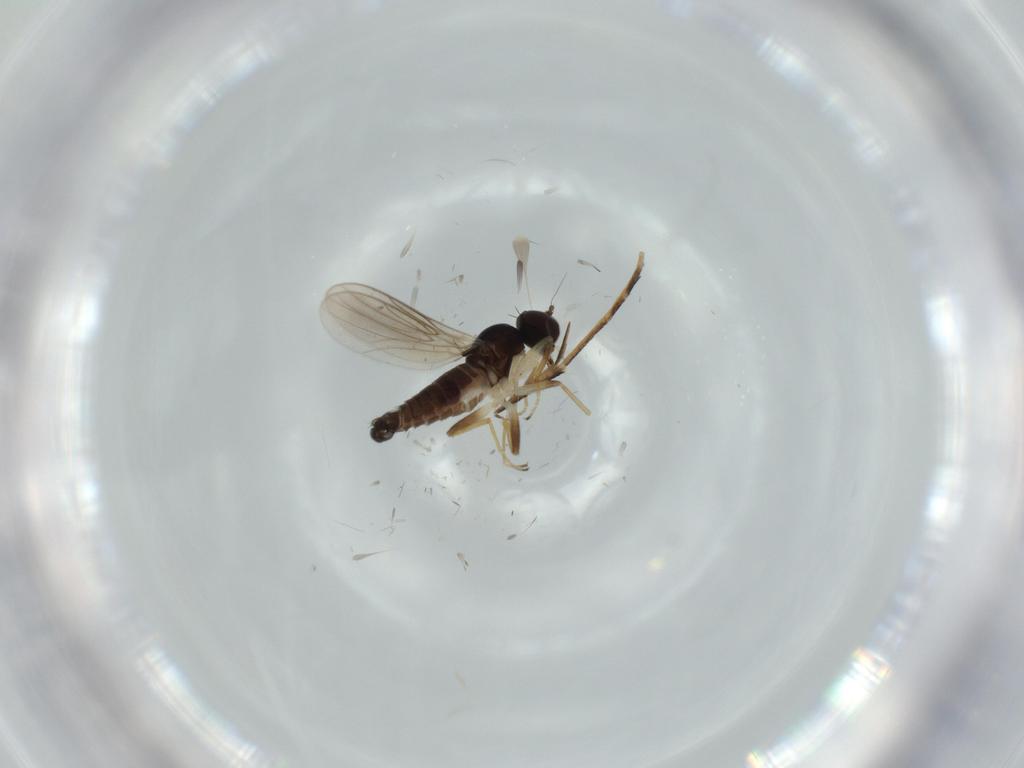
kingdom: Animalia
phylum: Arthropoda
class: Insecta
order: Diptera
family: Hybotidae
